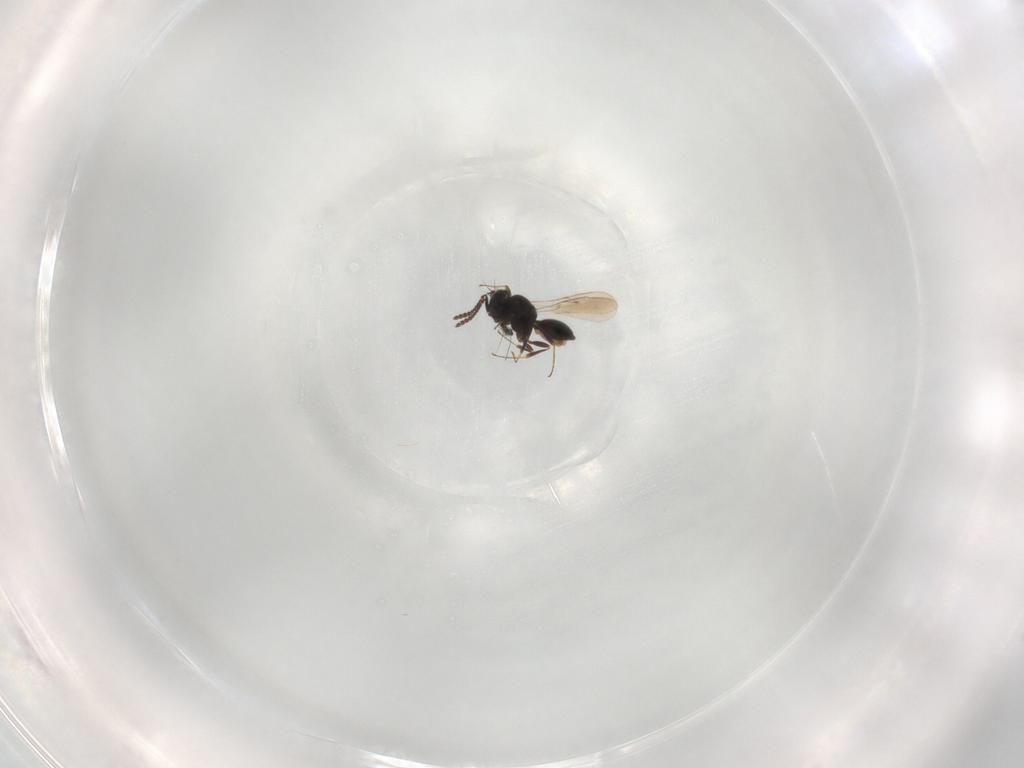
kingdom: Animalia
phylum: Arthropoda
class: Insecta
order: Hymenoptera
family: Scelionidae
